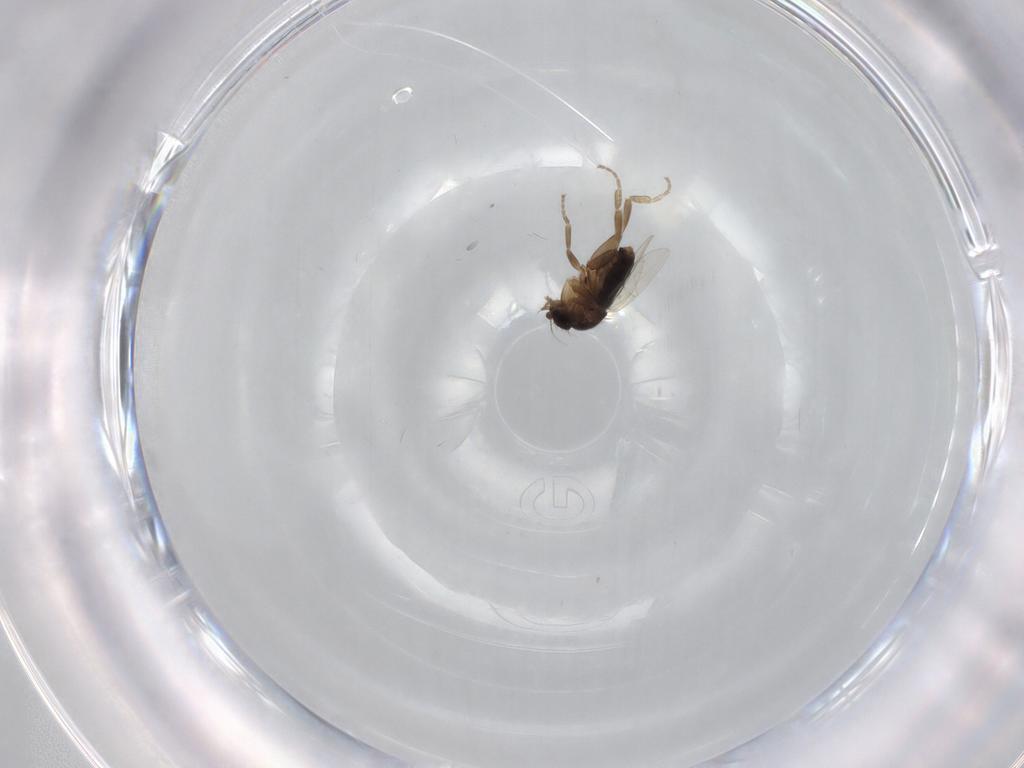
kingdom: Animalia
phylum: Arthropoda
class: Insecta
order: Diptera
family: Phoridae
